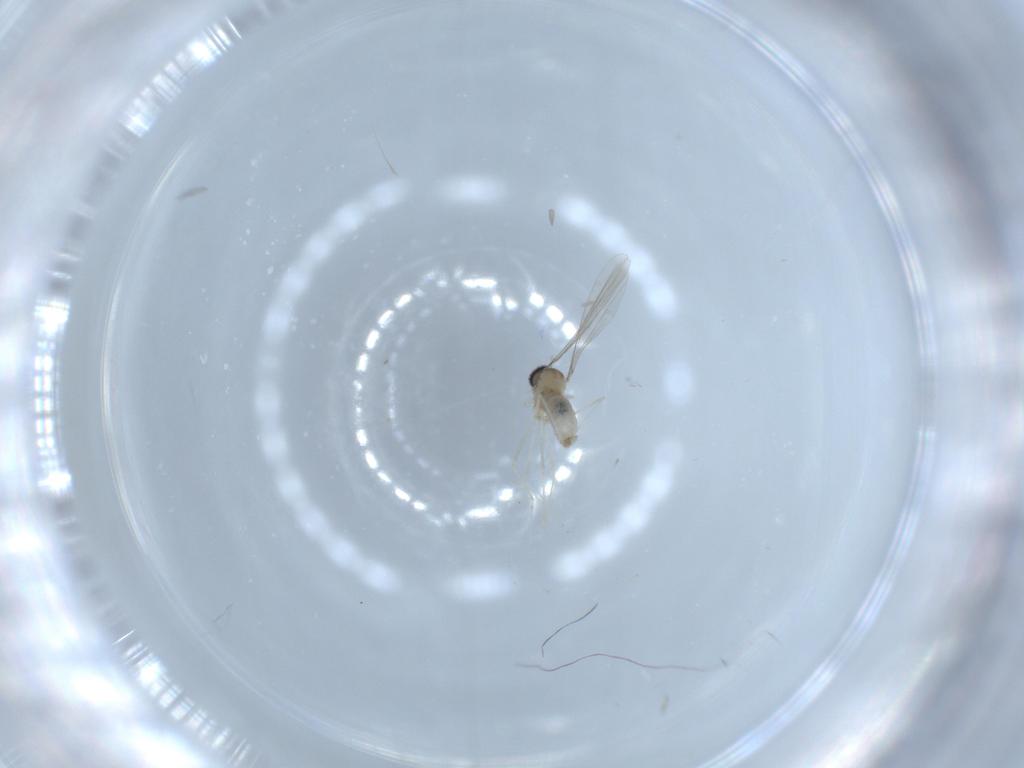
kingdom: Animalia
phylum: Arthropoda
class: Insecta
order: Diptera
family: Cecidomyiidae
